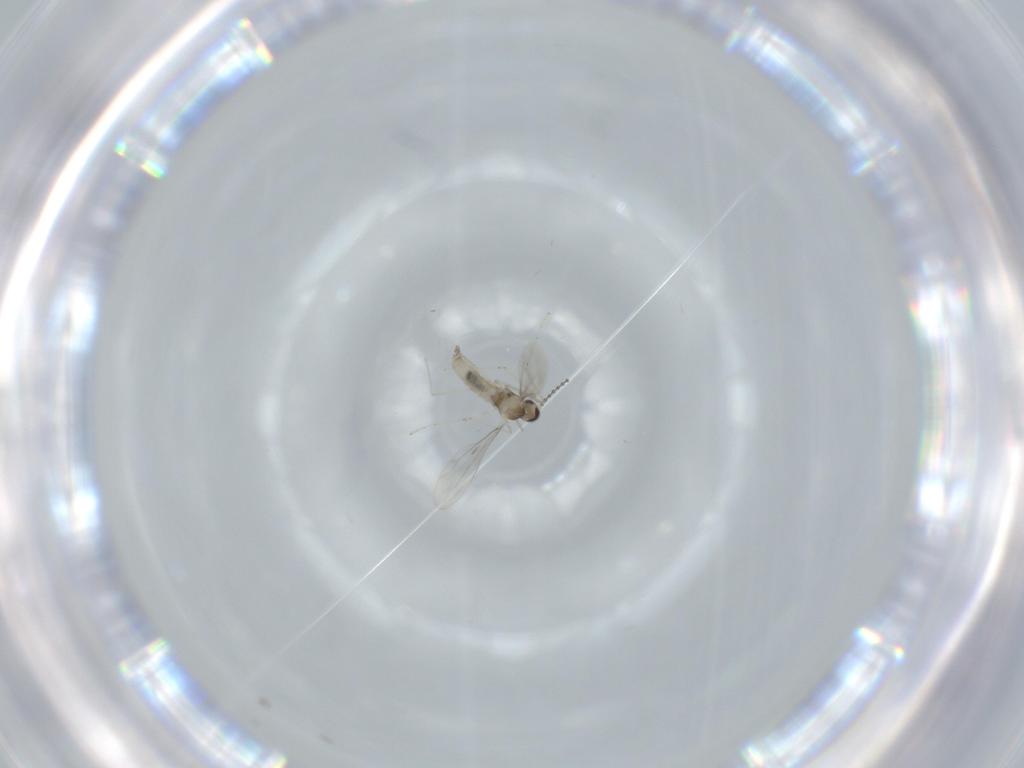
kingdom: Animalia
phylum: Arthropoda
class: Insecta
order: Diptera
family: Cecidomyiidae
